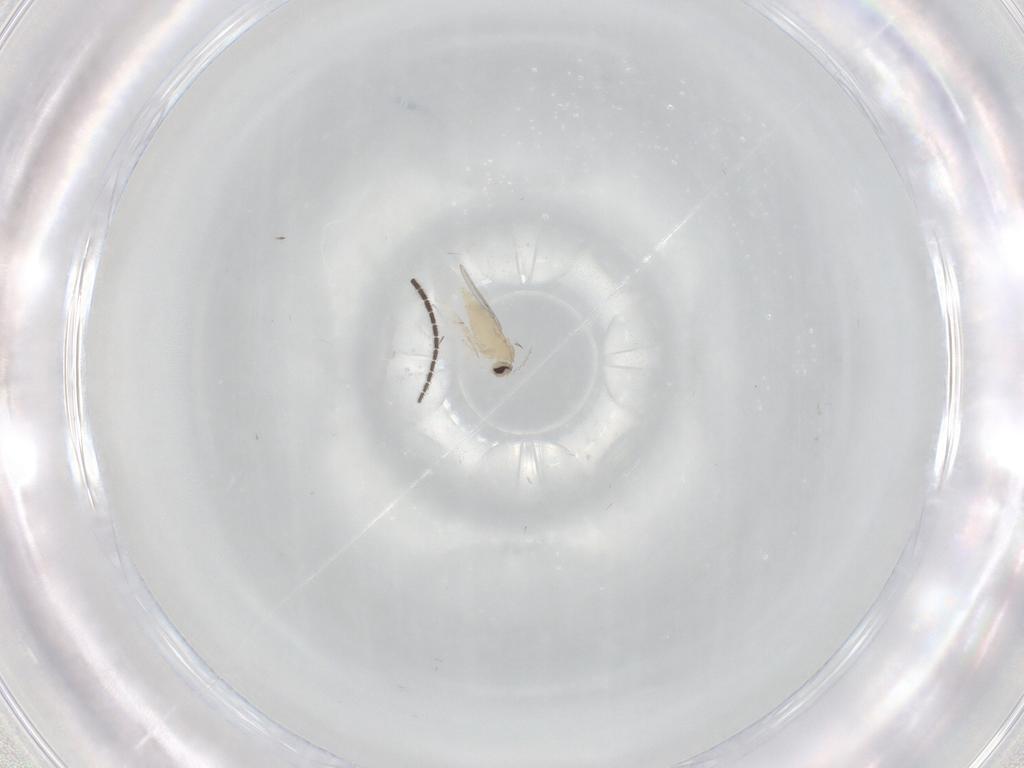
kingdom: Animalia
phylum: Arthropoda
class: Insecta
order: Diptera
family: Sciaridae
